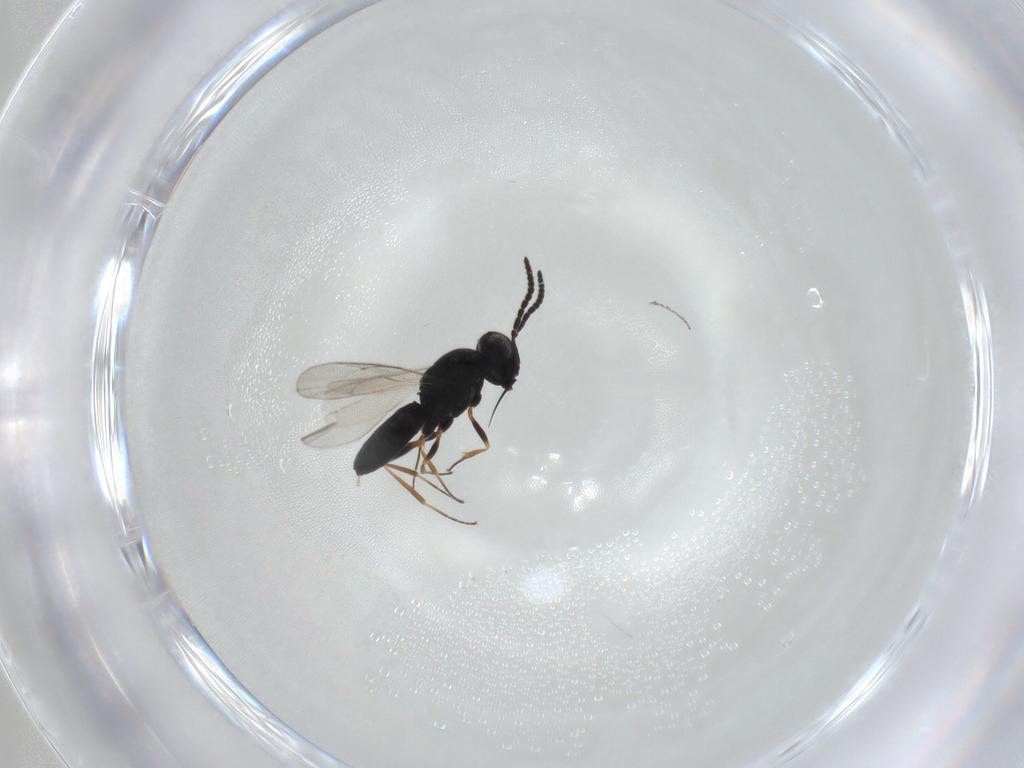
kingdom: Animalia
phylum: Arthropoda
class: Insecta
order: Hymenoptera
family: Scelionidae
